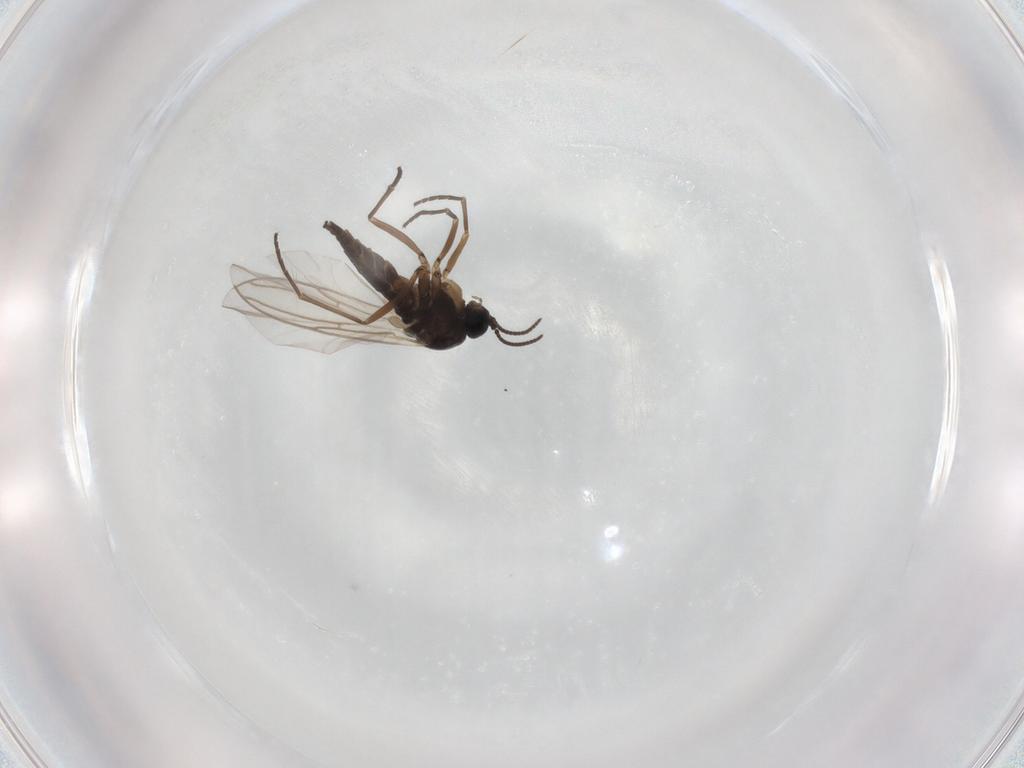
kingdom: Animalia
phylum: Arthropoda
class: Insecta
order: Diptera
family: Sciaridae
